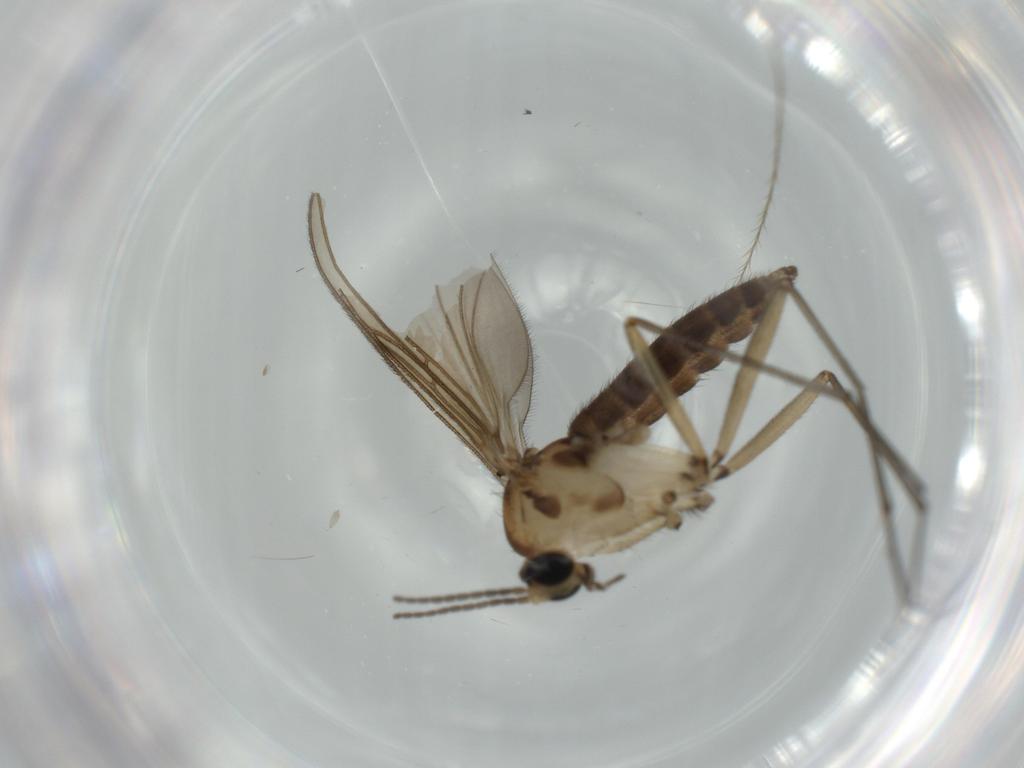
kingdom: Animalia
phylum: Arthropoda
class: Insecta
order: Diptera
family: Sciaridae
